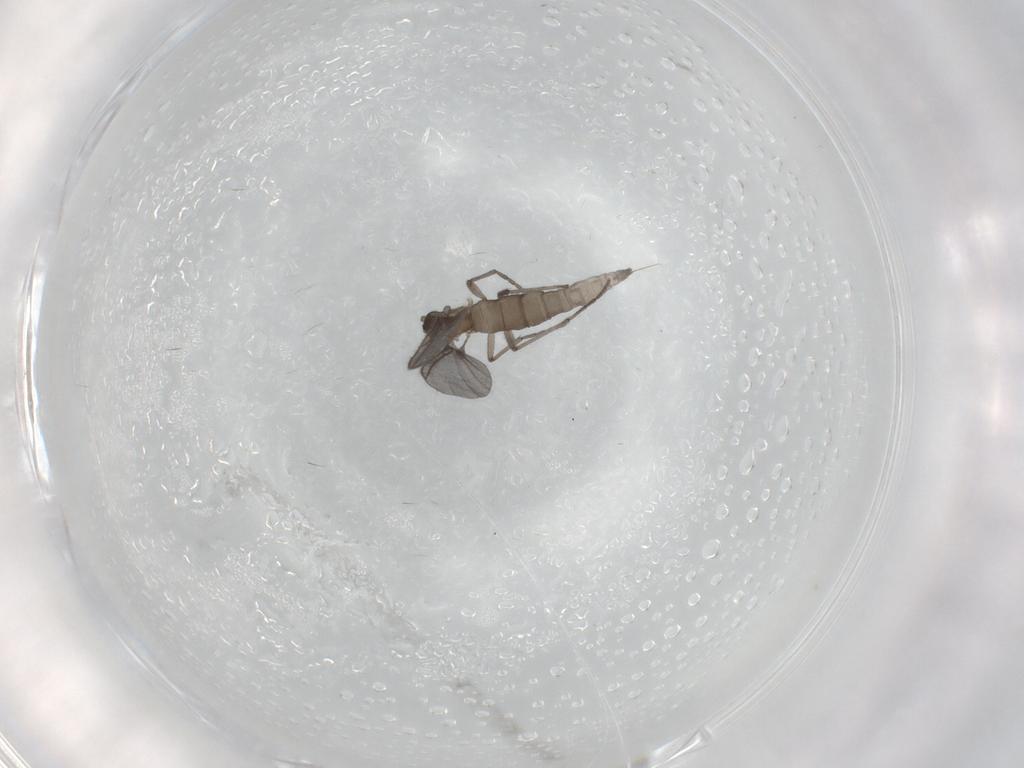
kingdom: Animalia
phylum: Arthropoda
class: Insecta
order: Diptera
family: Sciaridae
